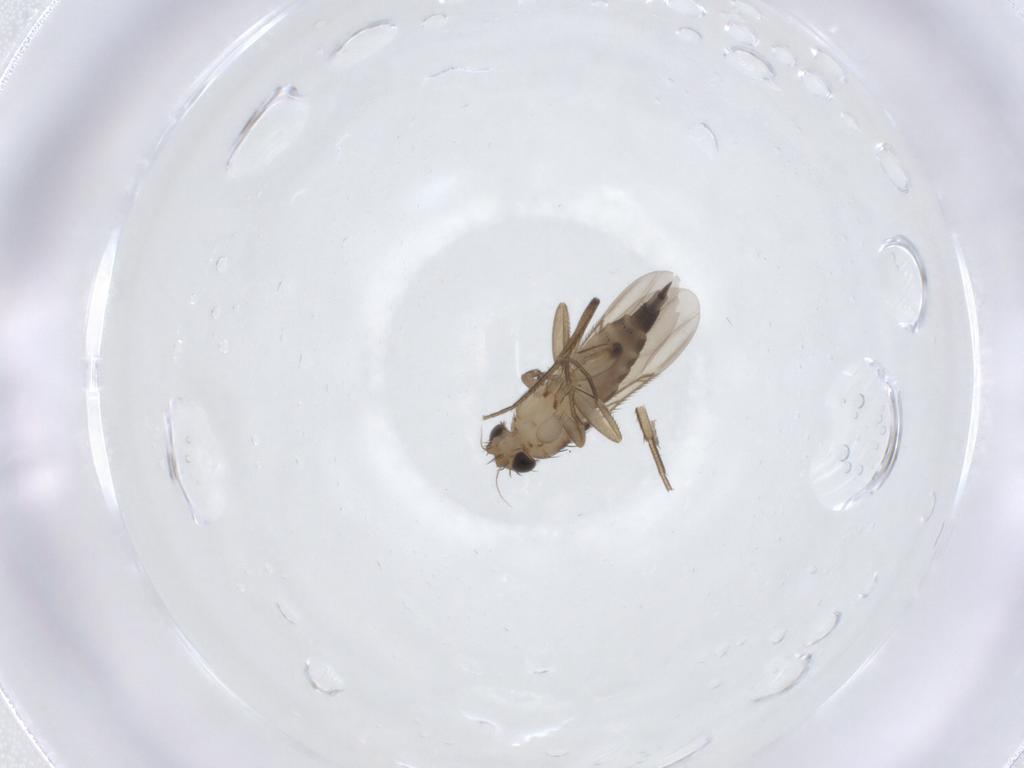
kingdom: Animalia
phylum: Arthropoda
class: Insecta
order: Diptera
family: Phoridae
